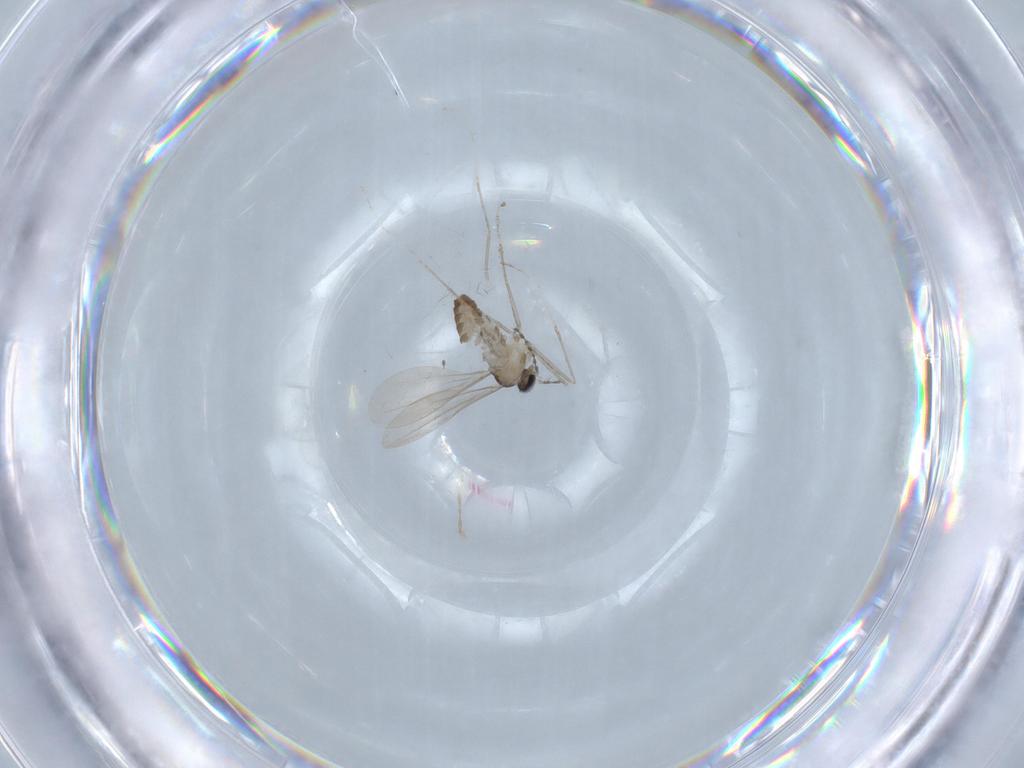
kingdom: Animalia
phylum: Arthropoda
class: Insecta
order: Diptera
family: Cecidomyiidae
